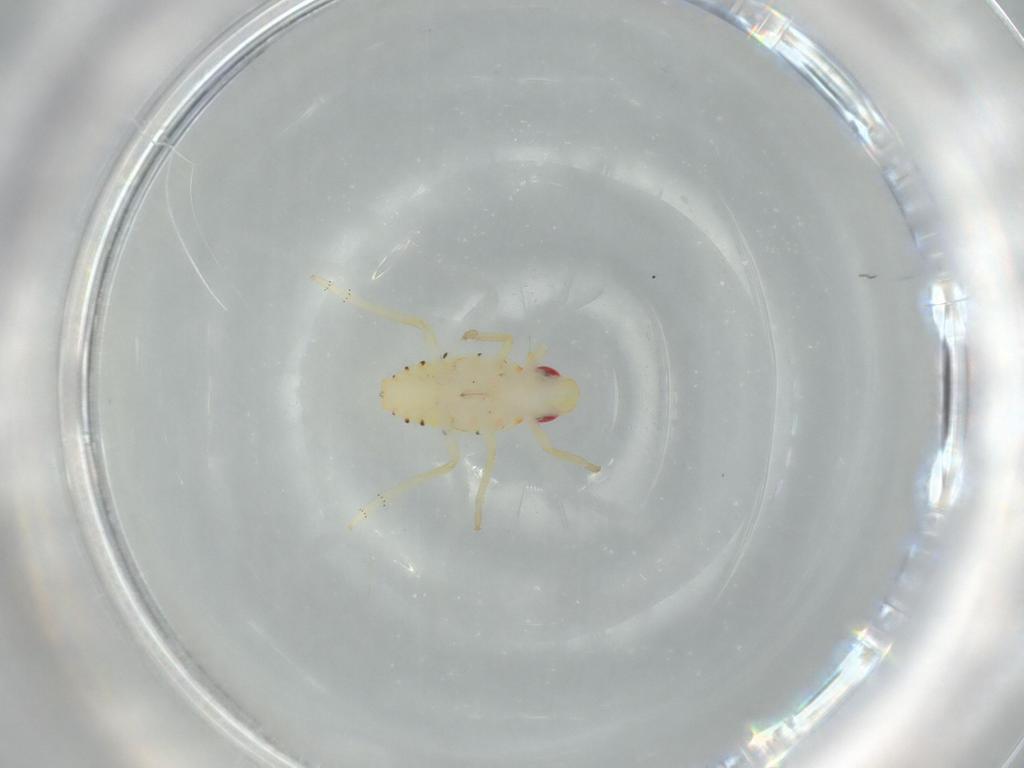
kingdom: Animalia
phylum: Arthropoda
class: Insecta
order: Hemiptera
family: Tropiduchidae
